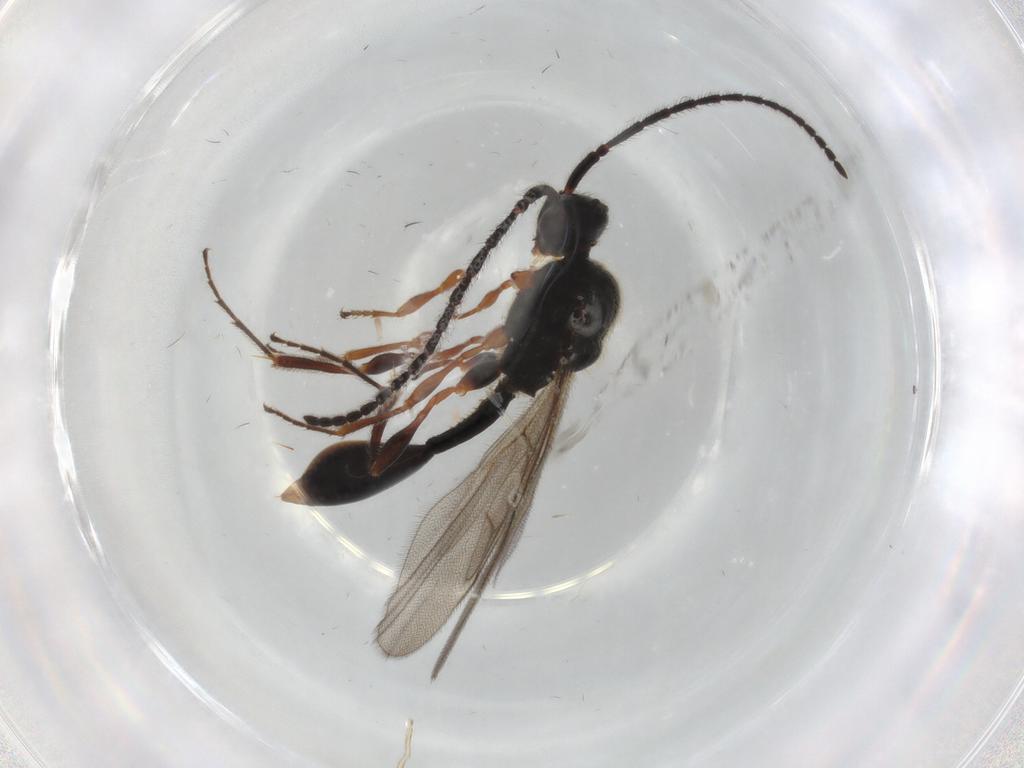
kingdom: Animalia
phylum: Arthropoda
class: Insecta
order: Hymenoptera
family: Diapriidae
